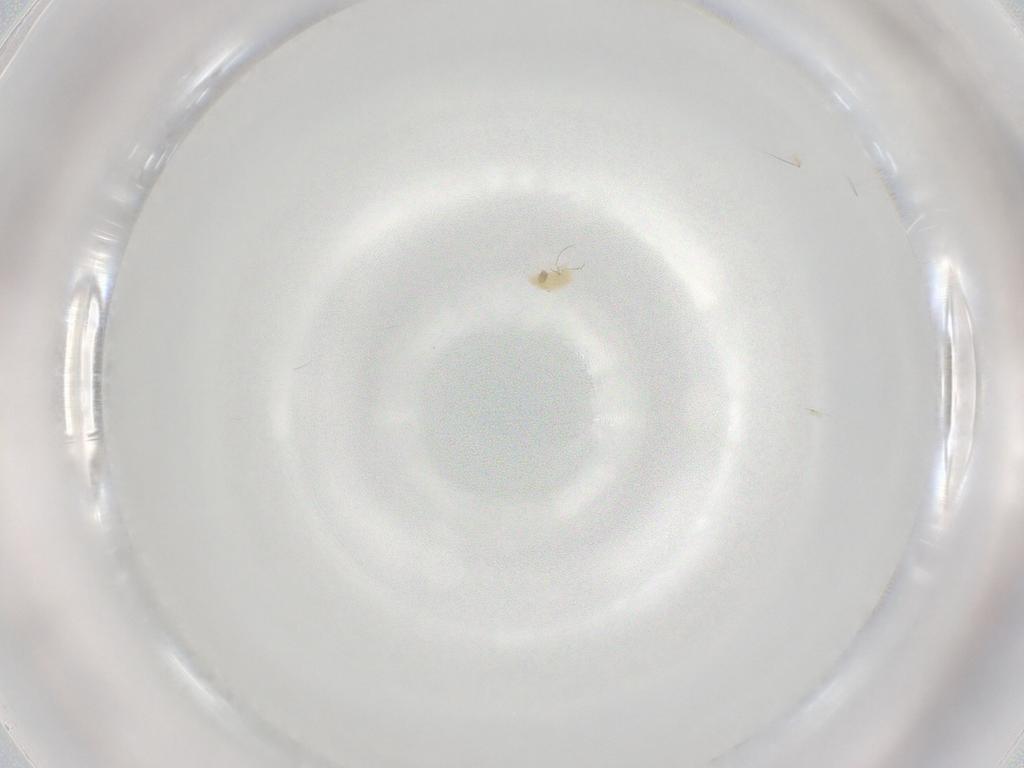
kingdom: Animalia
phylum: Arthropoda
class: Arachnida
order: Trombidiformes
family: Eupodidae
